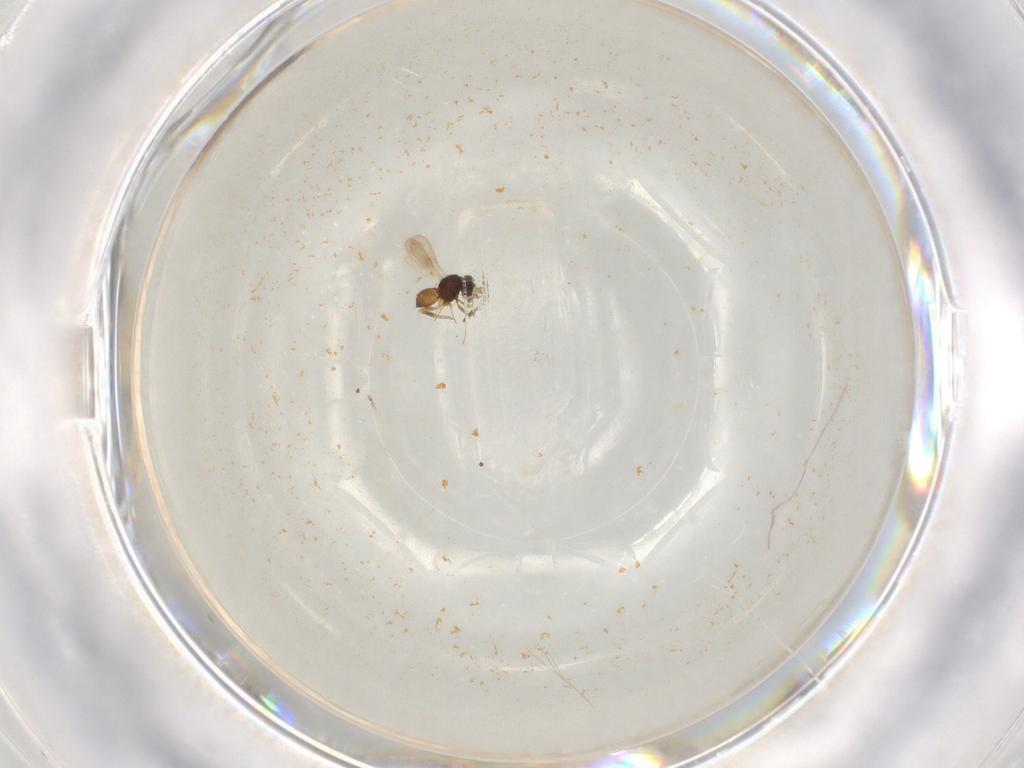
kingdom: Animalia
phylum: Arthropoda
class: Insecta
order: Hymenoptera
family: Scelionidae
